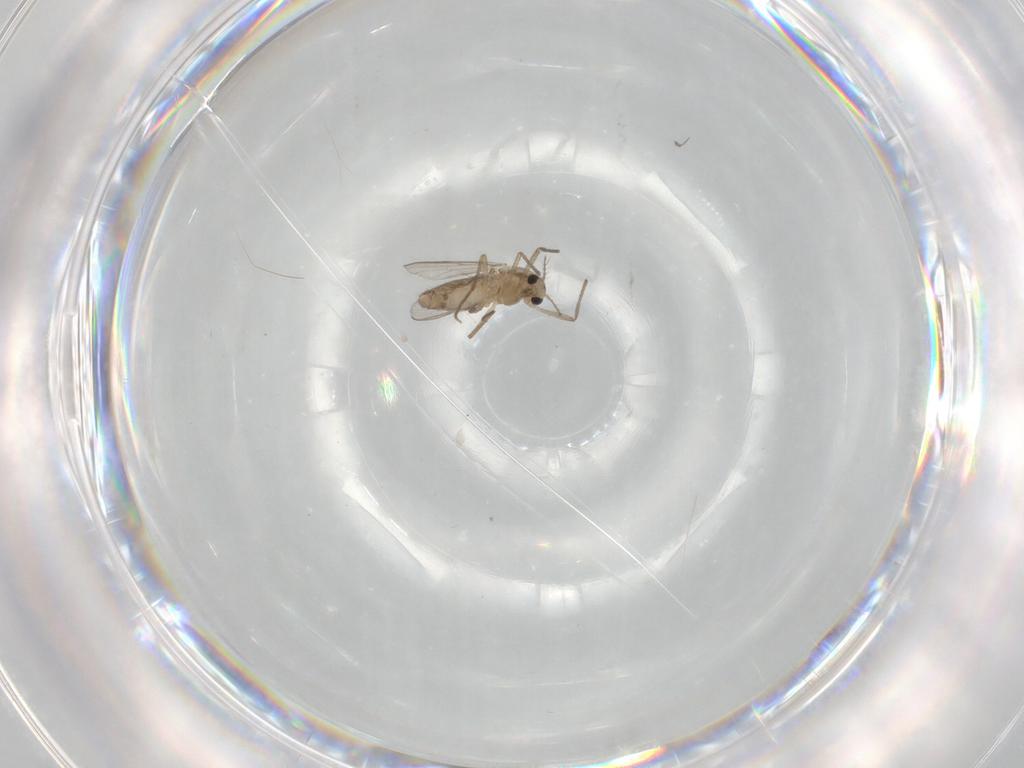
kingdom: Animalia
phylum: Arthropoda
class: Insecta
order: Diptera
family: Chironomidae
